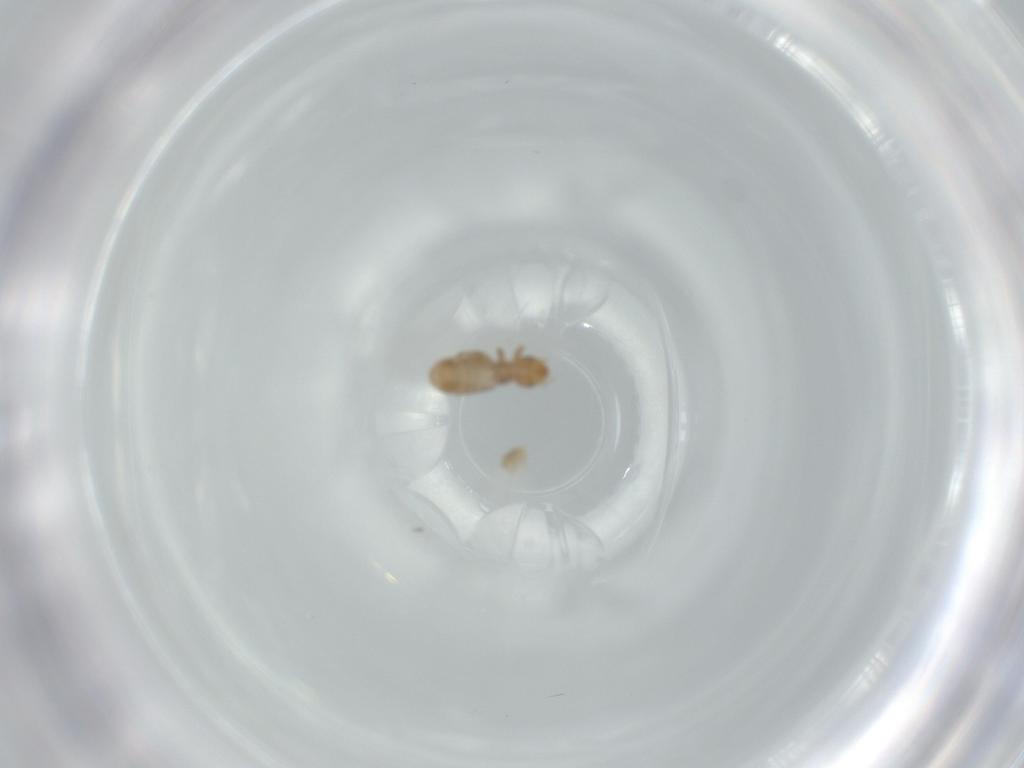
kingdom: Animalia
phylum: Arthropoda
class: Insecta
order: Psocodea
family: Liposcelididae
